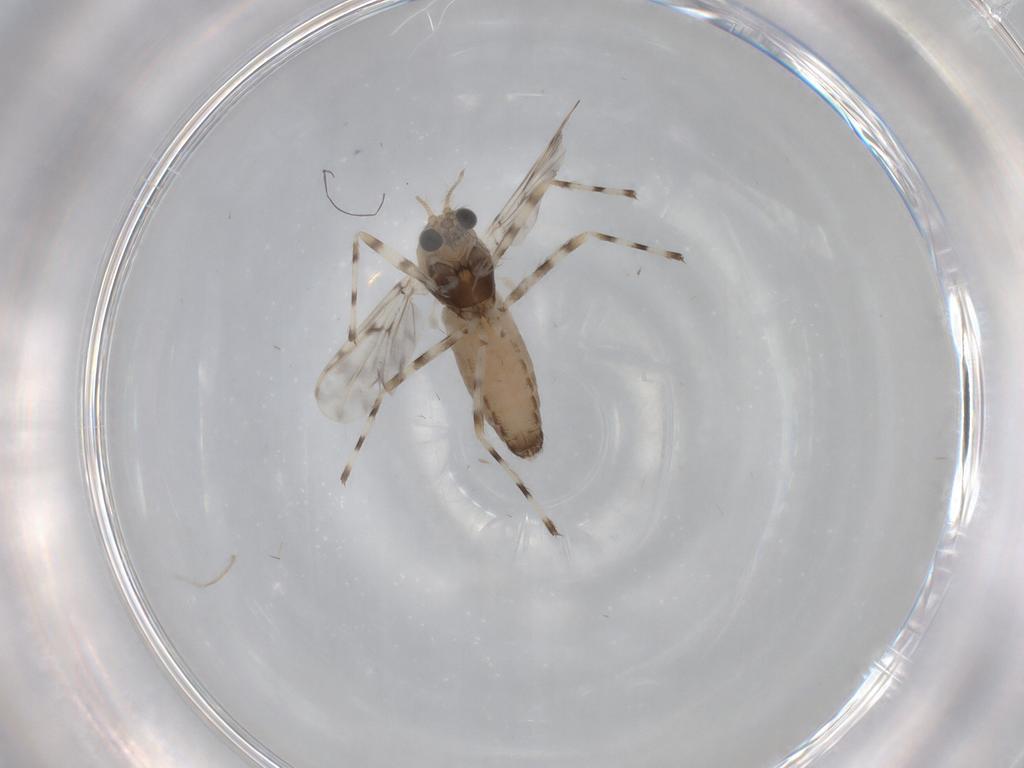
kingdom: Animalia
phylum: Arthropoda
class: Insecta
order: Diptera
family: Chironomidae
